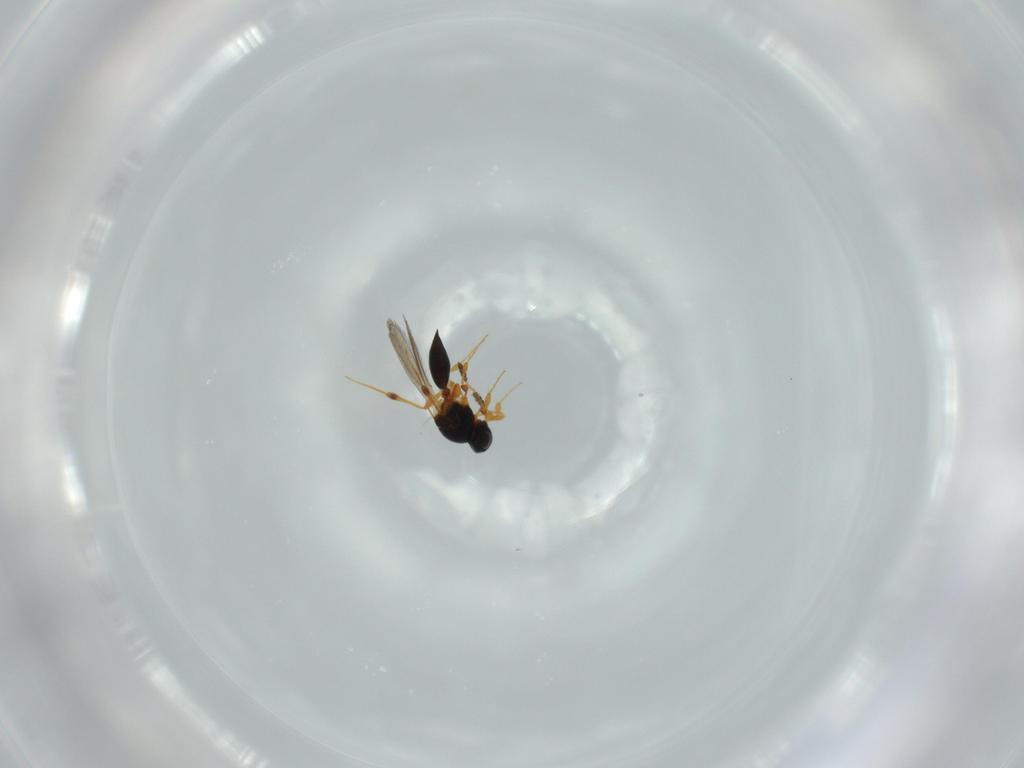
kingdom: Animalia
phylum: Arthropoda
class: Insecta
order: Hymenoptera
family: Platygastridae
